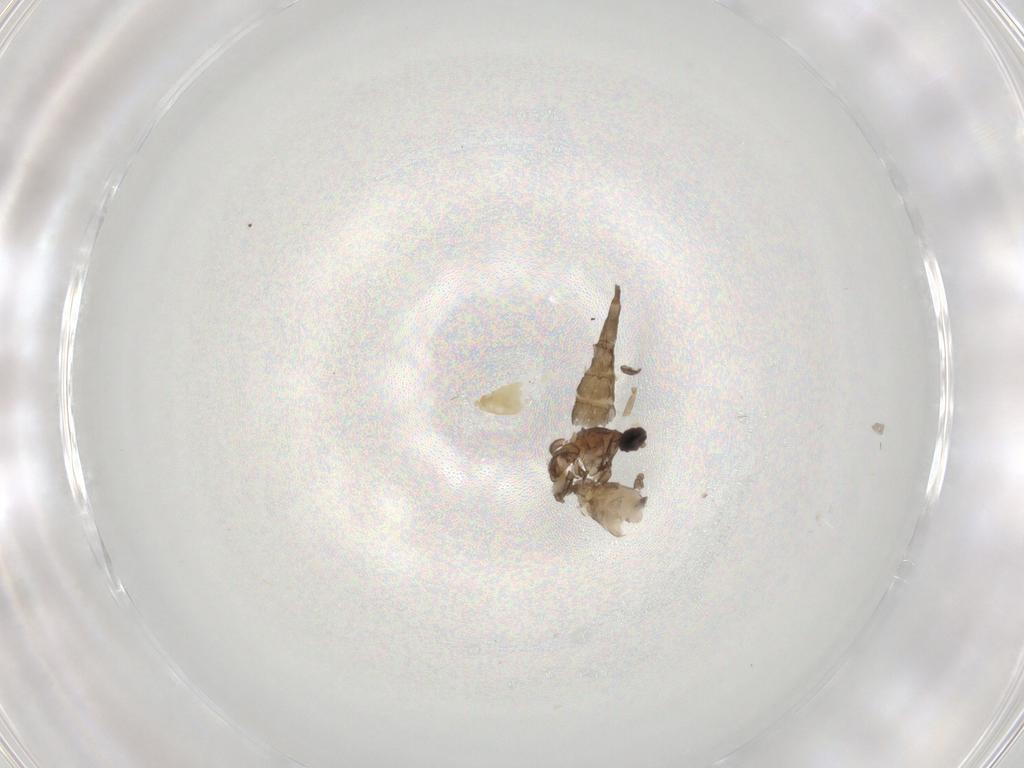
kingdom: Animalia
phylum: Arthropoda
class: Insecta
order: Diptera
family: Chironomidae
